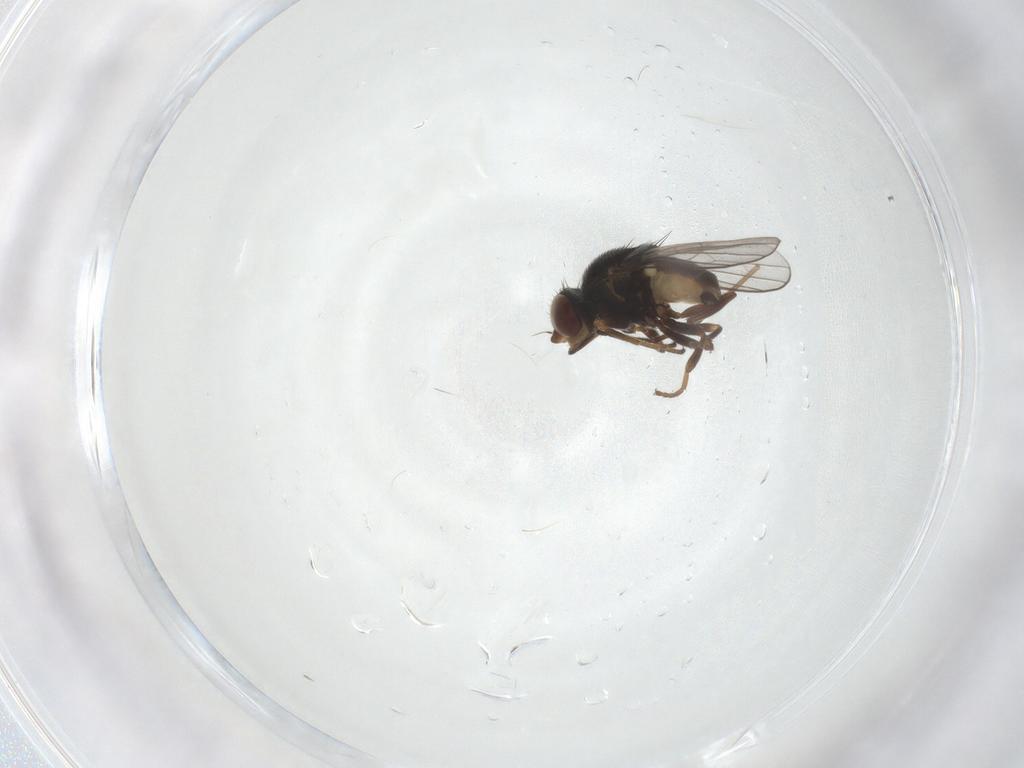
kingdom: Animalia
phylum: Arthropoda
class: Insecta
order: Diptera
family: Chloropidae
